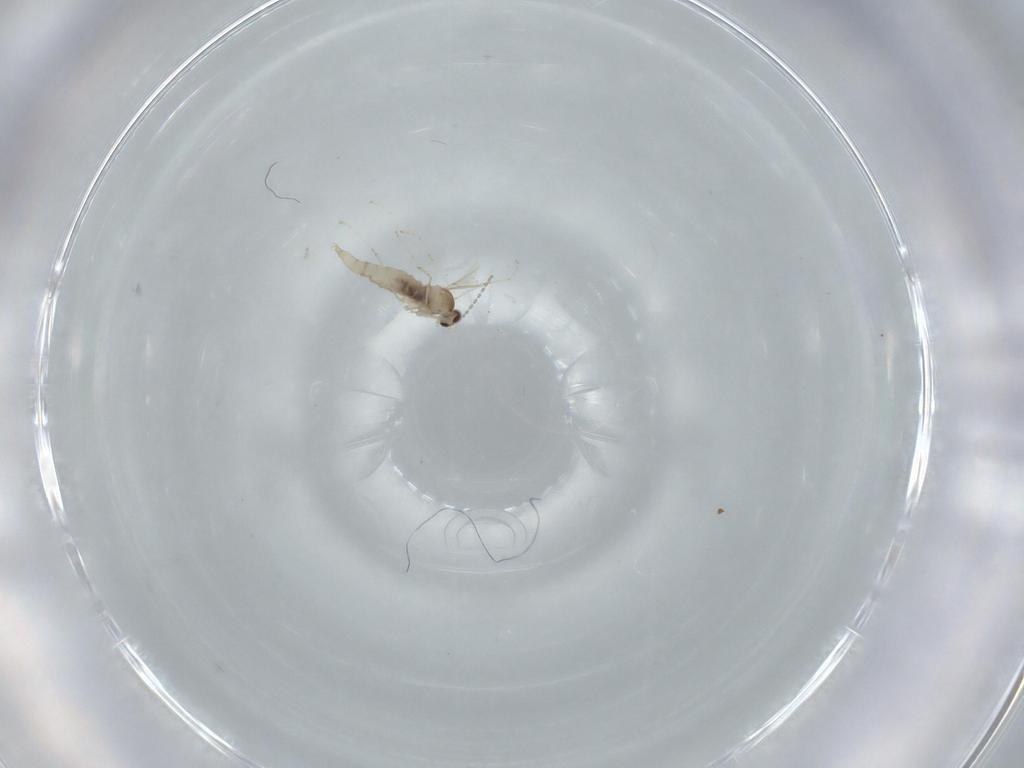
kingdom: Animalia
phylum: Arthropoda
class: Insecta
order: Diptera
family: Cecidomyiidae
